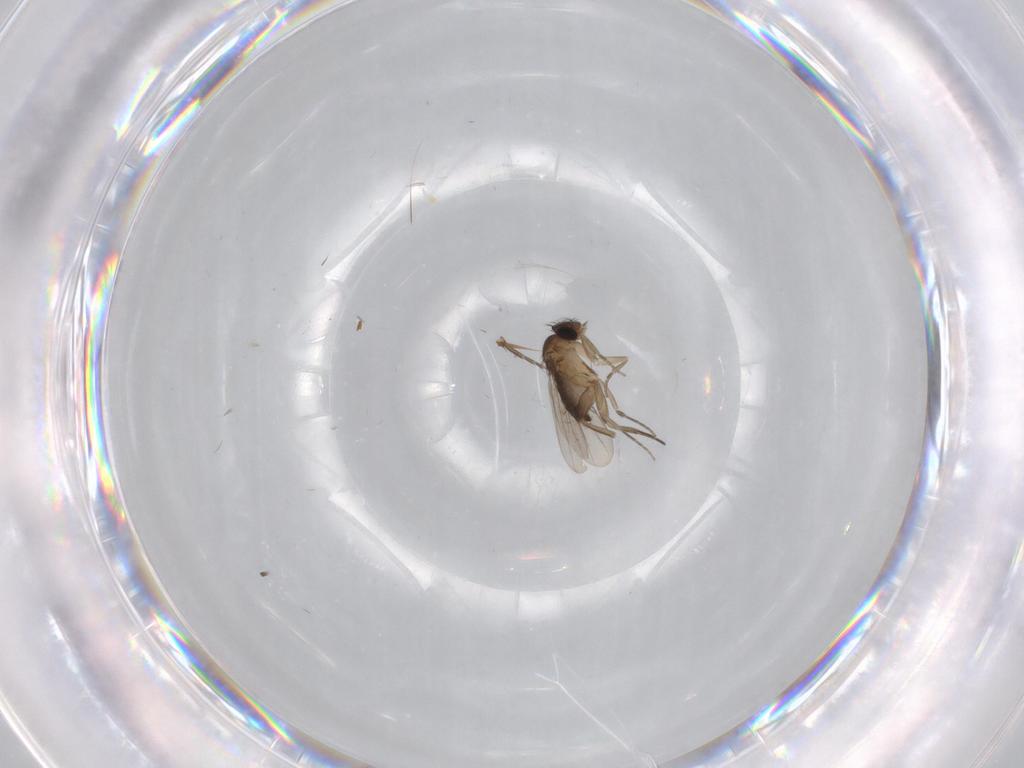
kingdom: Animalia
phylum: Arthropoda
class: Insecta
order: Diptera
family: Phoridae
